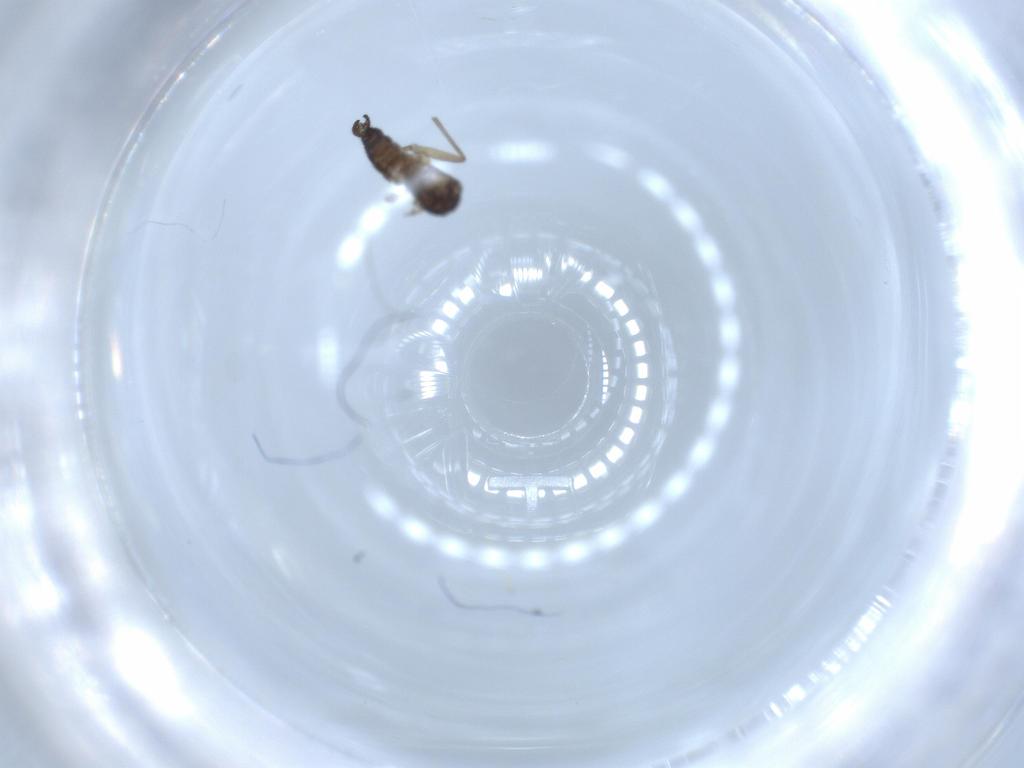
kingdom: Animalia
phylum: Arthropoda
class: Insecta
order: Diptera
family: Sciaridae
